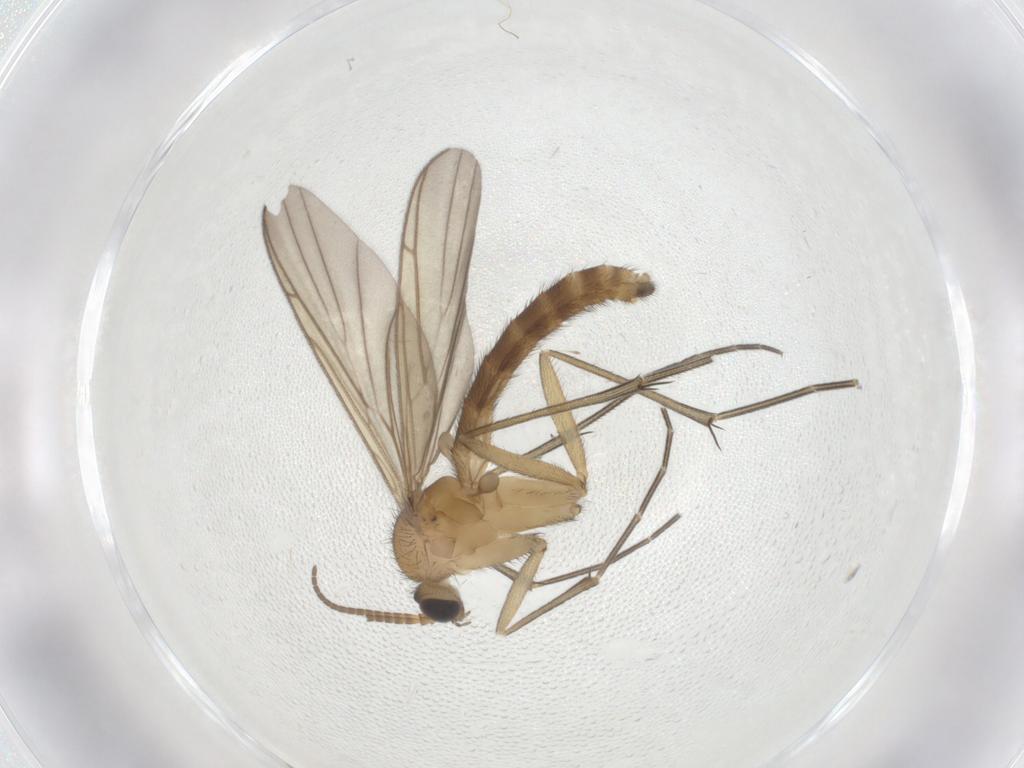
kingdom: Animalia
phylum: Arthropoda
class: Insecta
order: Diptera
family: Keroplatidae
